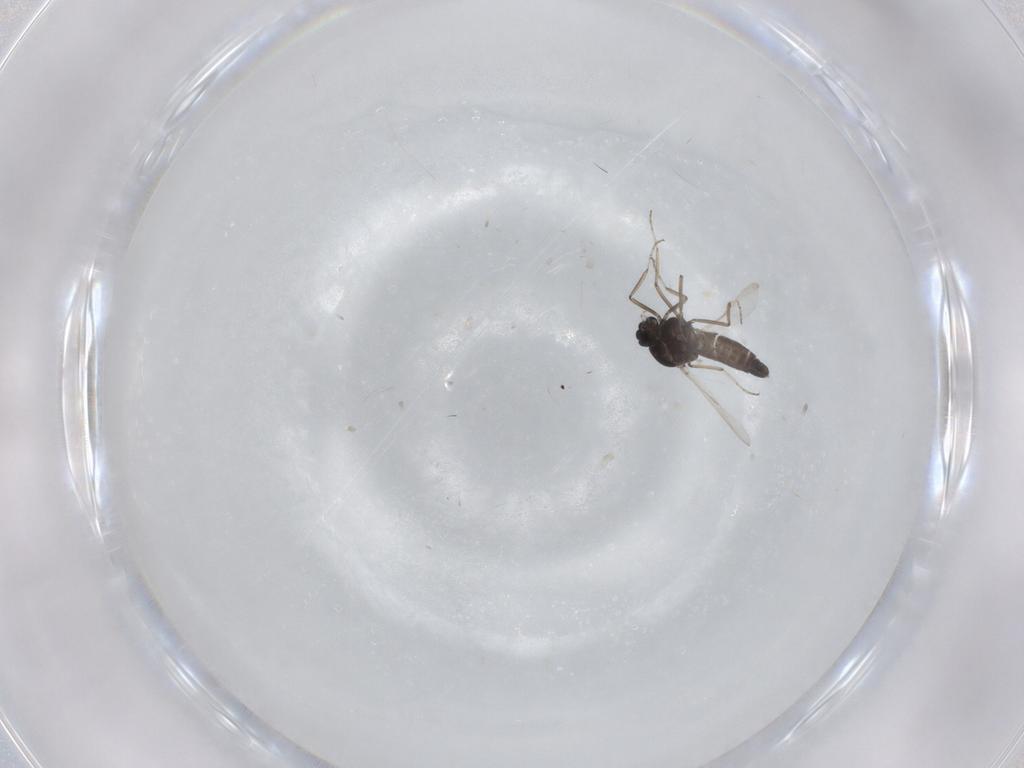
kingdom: Animalia
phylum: Arthropoda
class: Insecta
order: Diptera
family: Ceratopogonidae
